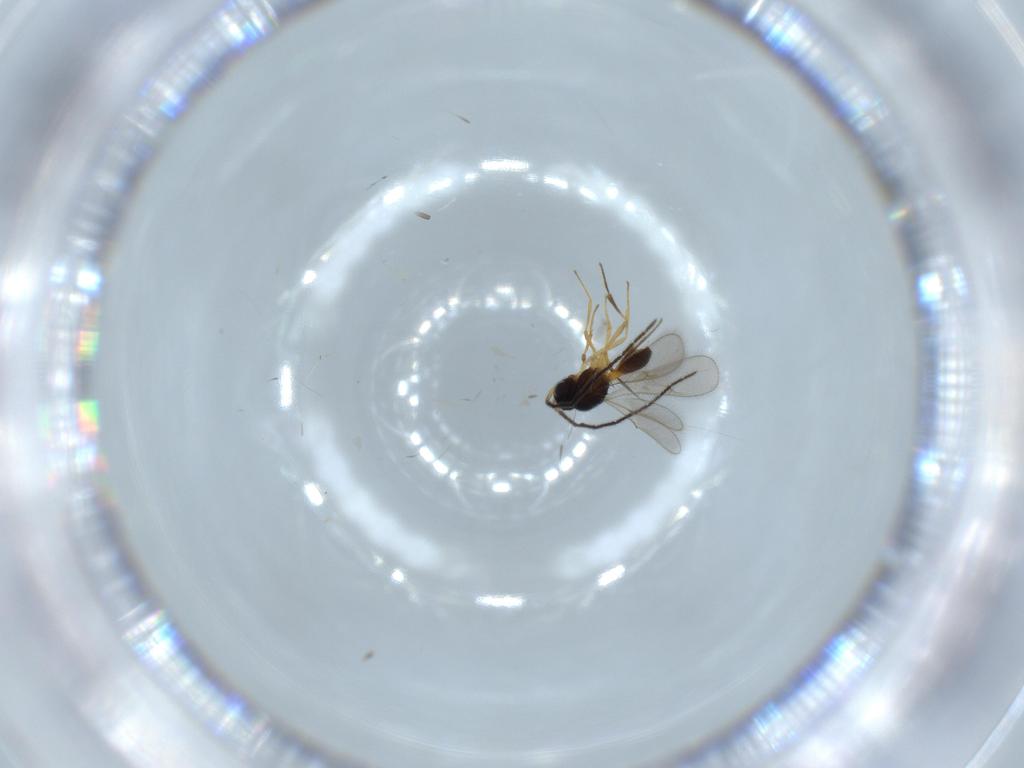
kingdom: Animalia
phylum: Arthropoda
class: Insecta
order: Hymenoptera
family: Scelionidae
